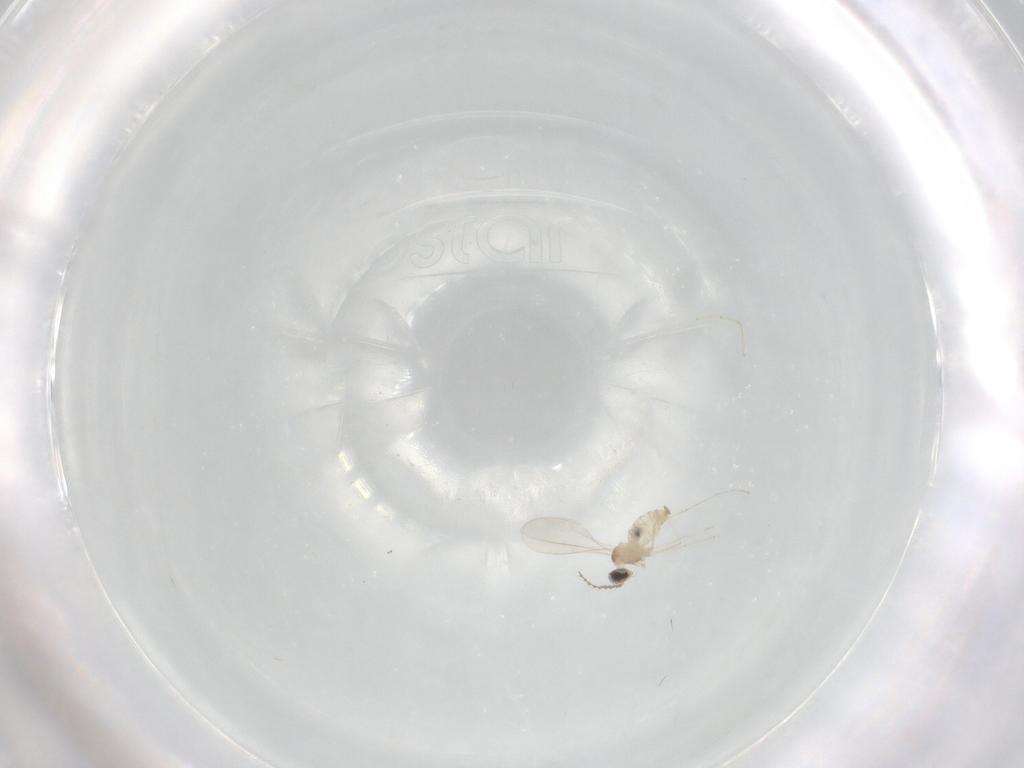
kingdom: Animalia
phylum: Arthropoda
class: Insecta
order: Diptera
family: Cecidomyiidae
